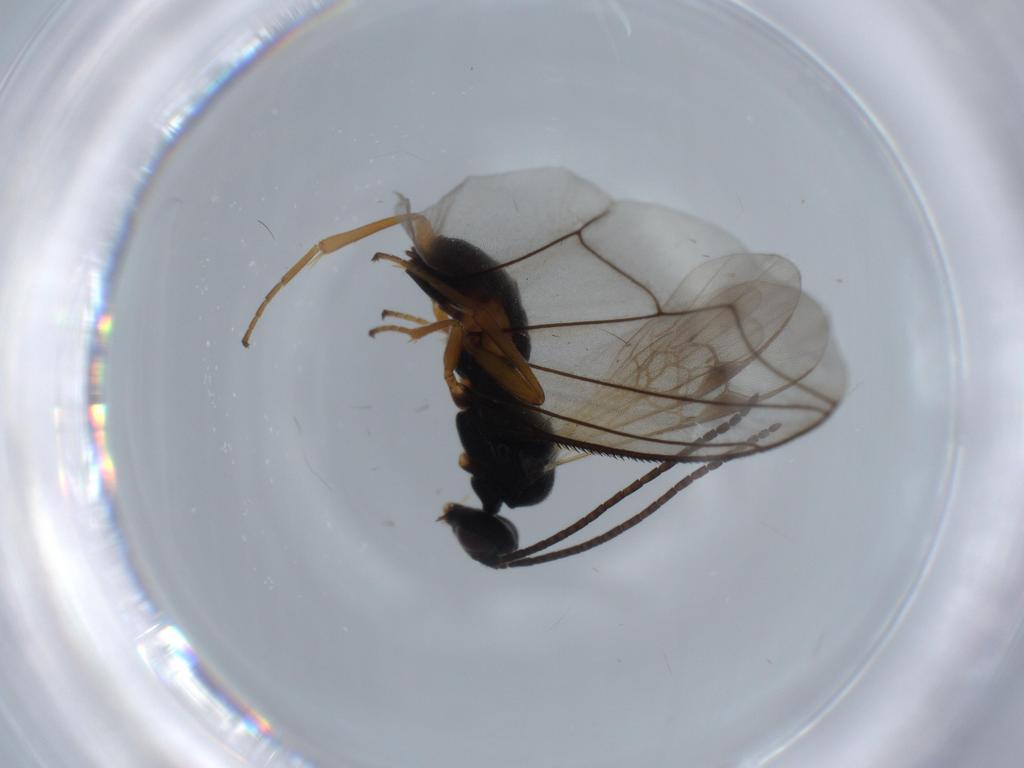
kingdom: Animalia
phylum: Arthropoda
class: Insecta
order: Hymenoptera
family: Braconidae
